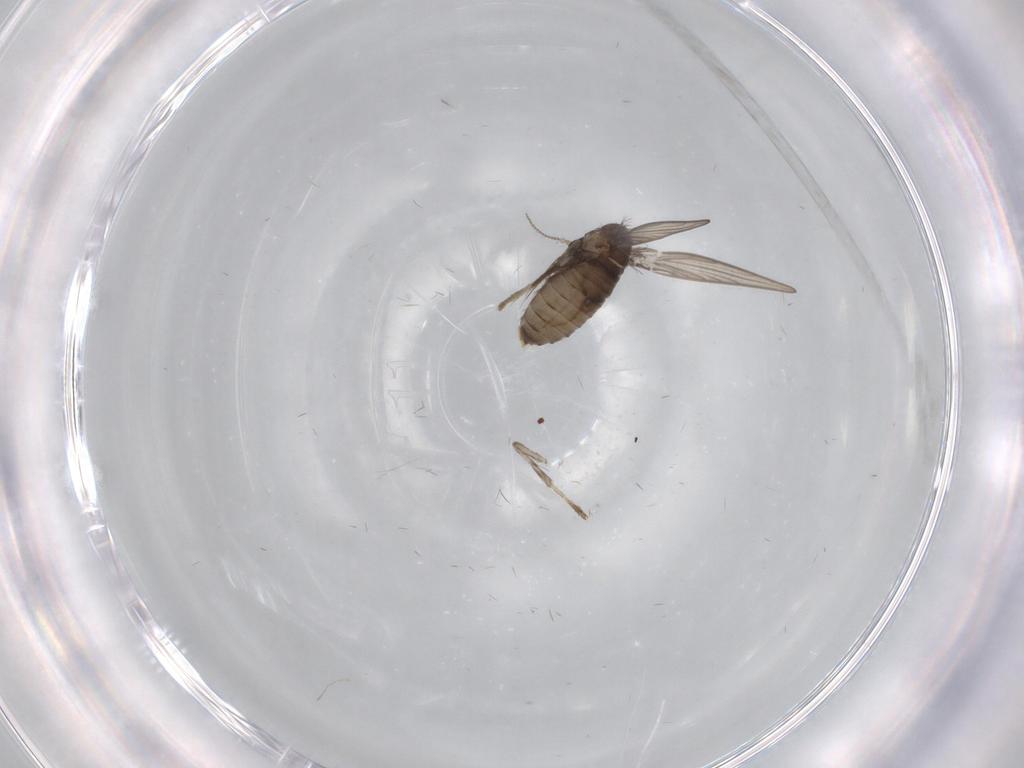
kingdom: Animalia
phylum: Arthropoda
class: Insecta
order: Diptera
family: Psychodidae
